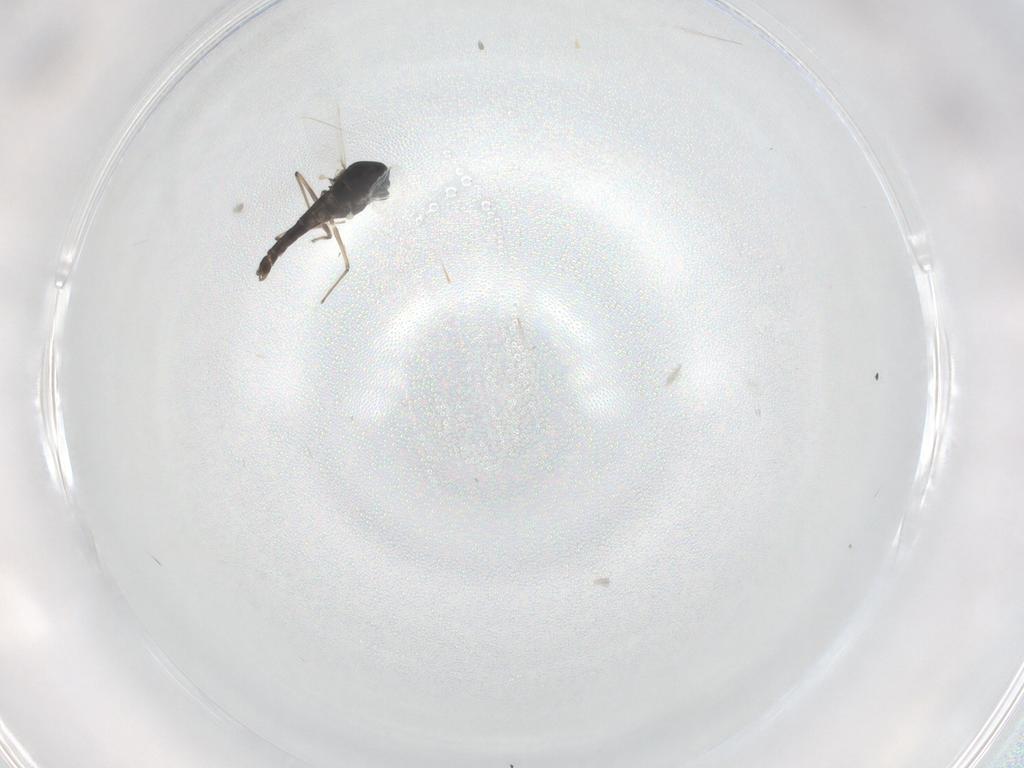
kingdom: Animalia
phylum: Arthropoda
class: Insecta
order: Diptera
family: Chironomidae
